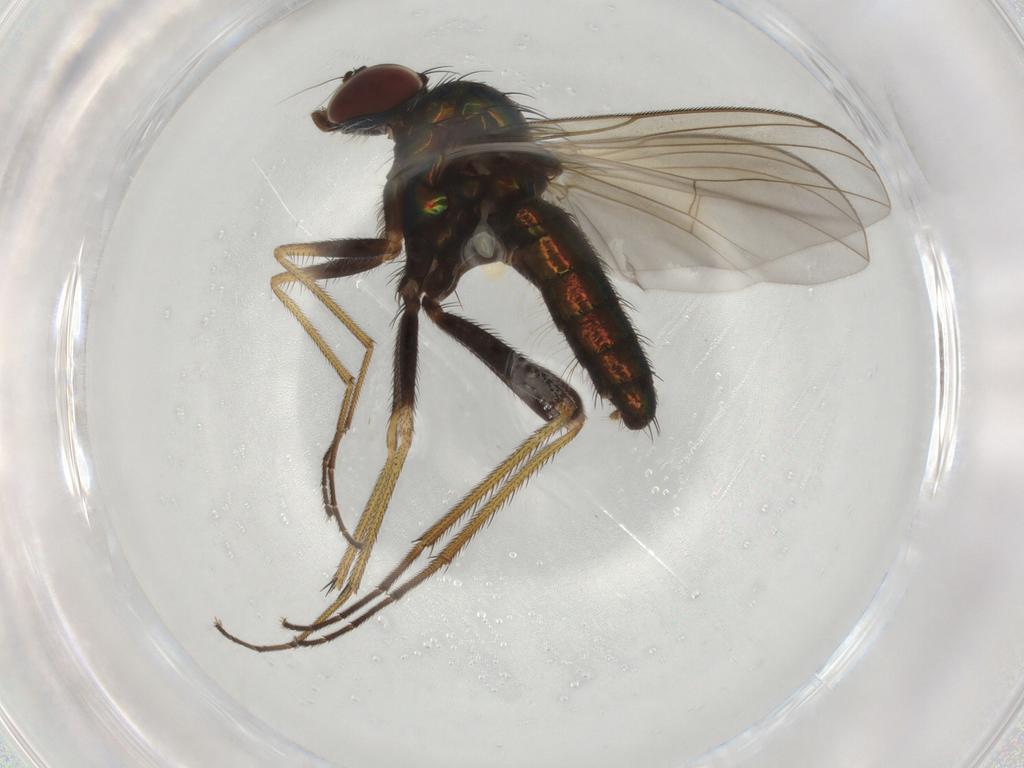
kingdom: Animalia
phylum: Arthropoda
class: Insecta
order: Diptera
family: Dolichopodidae
